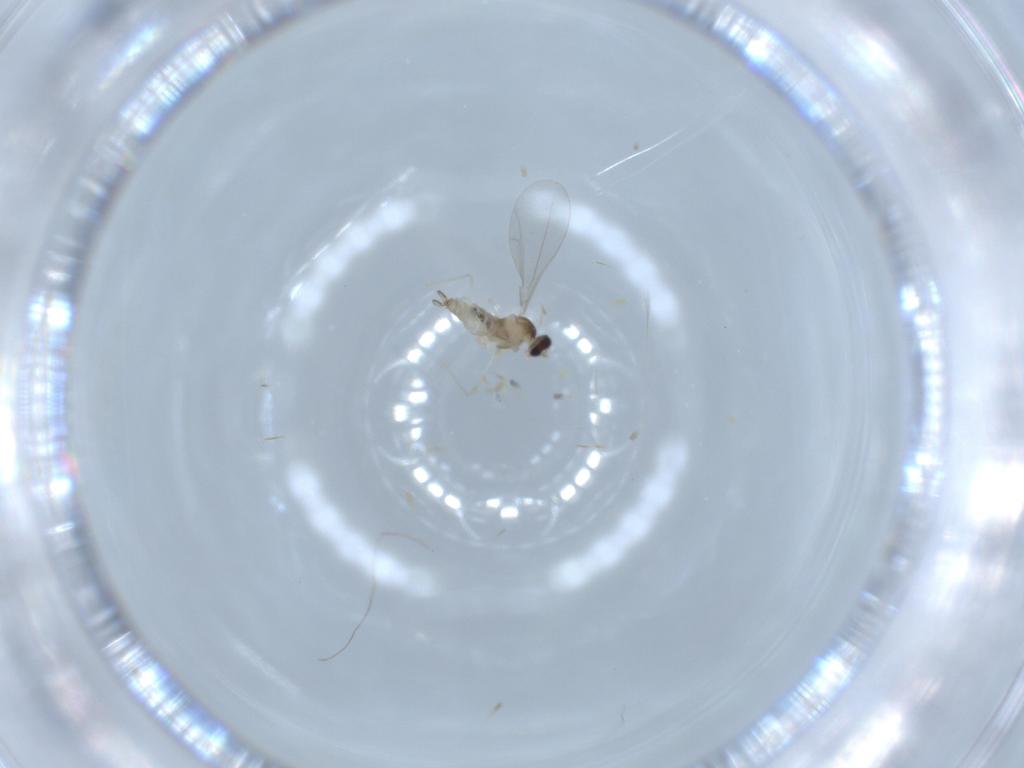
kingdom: Animalia
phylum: Arthropoda
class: Insecta
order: Diptera
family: Cecidomyiidae
